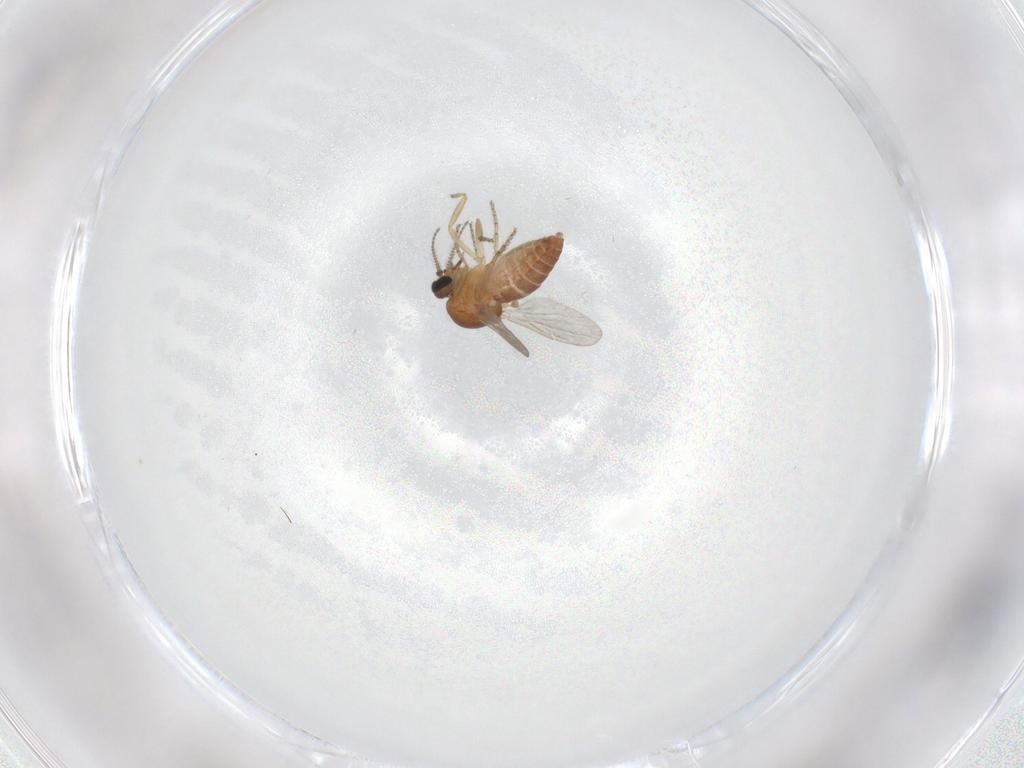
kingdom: Animalia
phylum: Arthropoda
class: Insecta
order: Diptera
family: Ceratopogonidae
